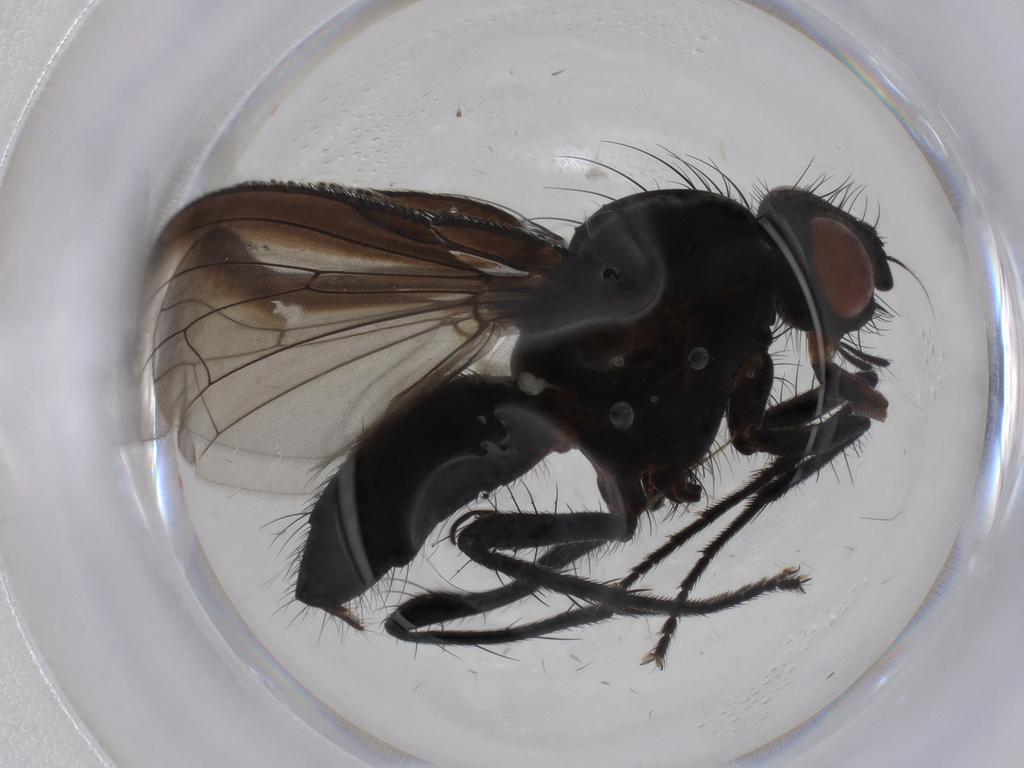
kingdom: Animalia
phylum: Arthropoda
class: Insecta
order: Diptera
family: Anthomyiidae
